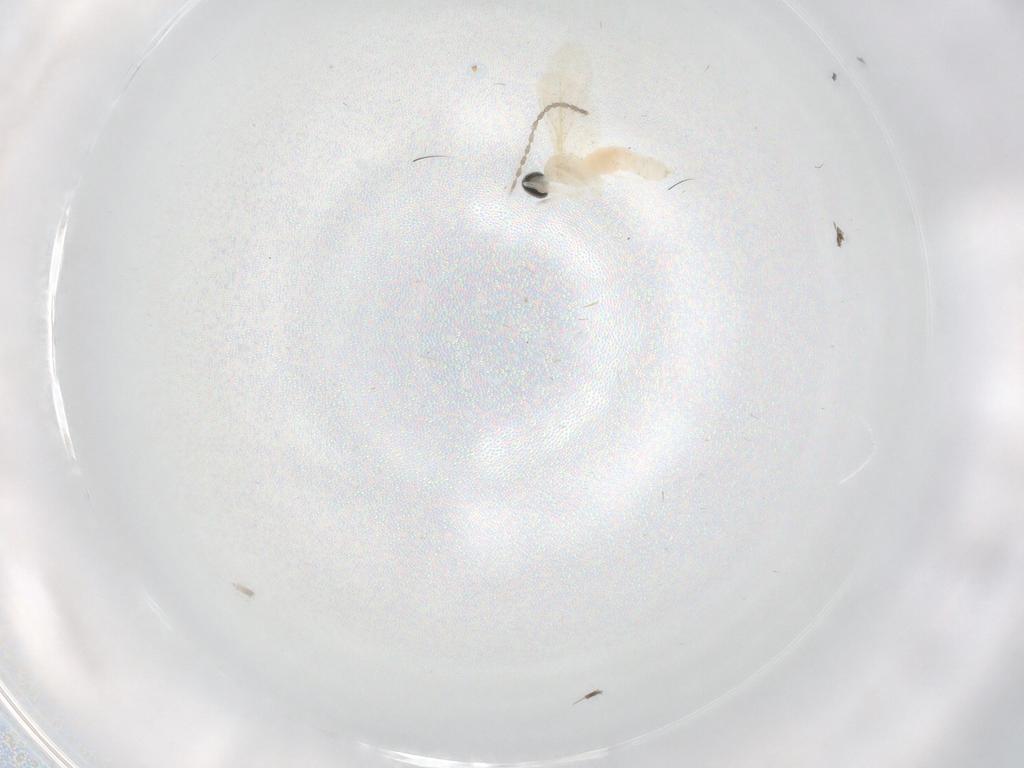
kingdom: Animalia
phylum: Arthropoda
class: Insecta
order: Diptera
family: Cecidomyiidae
